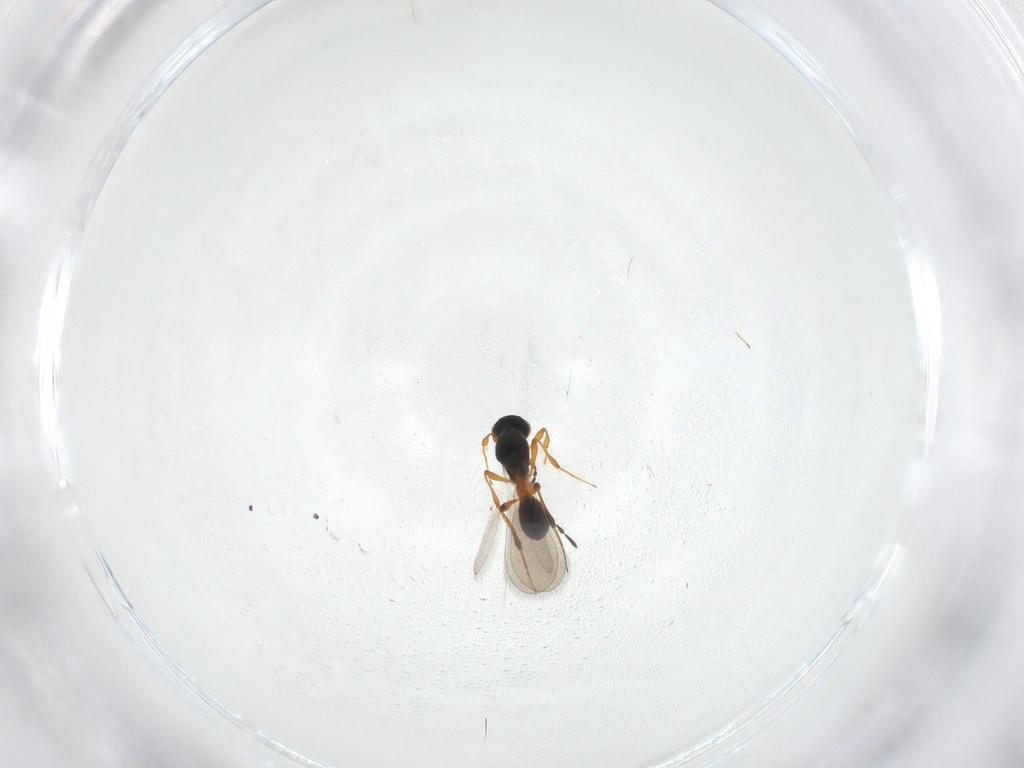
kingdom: Animalia
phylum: Arthropoda
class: Insecta
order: Hymenoptera
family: Platygastridae
